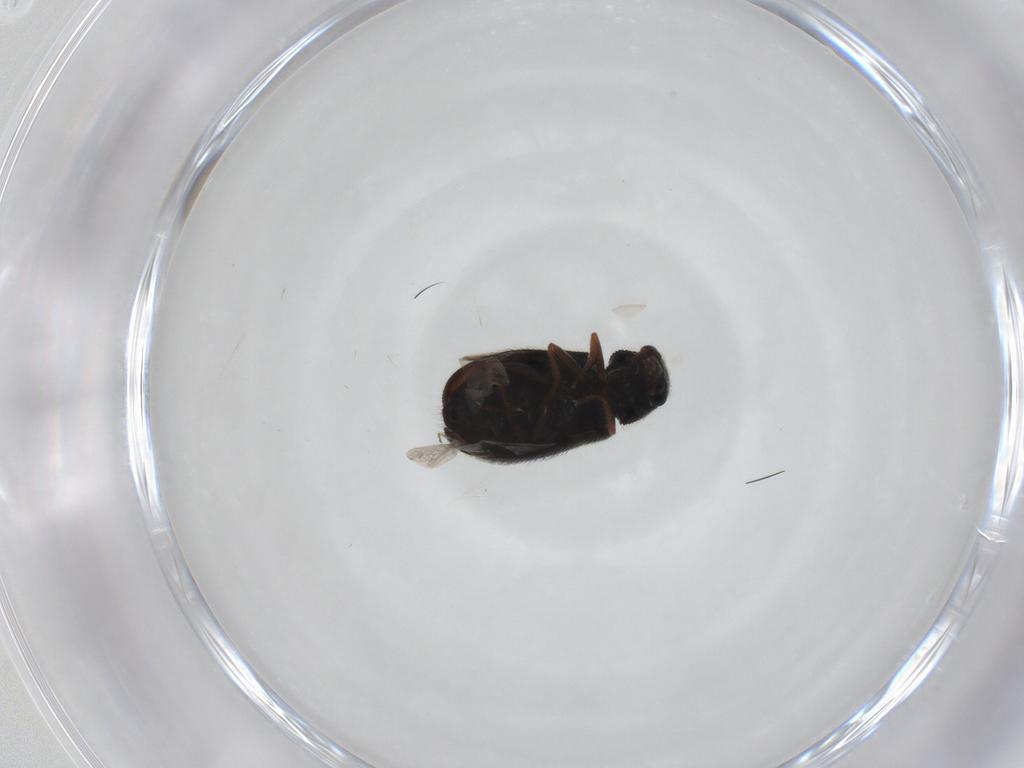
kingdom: Animalia
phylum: Arthropoda
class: Insecta
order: Coleoptera
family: Melyridae
